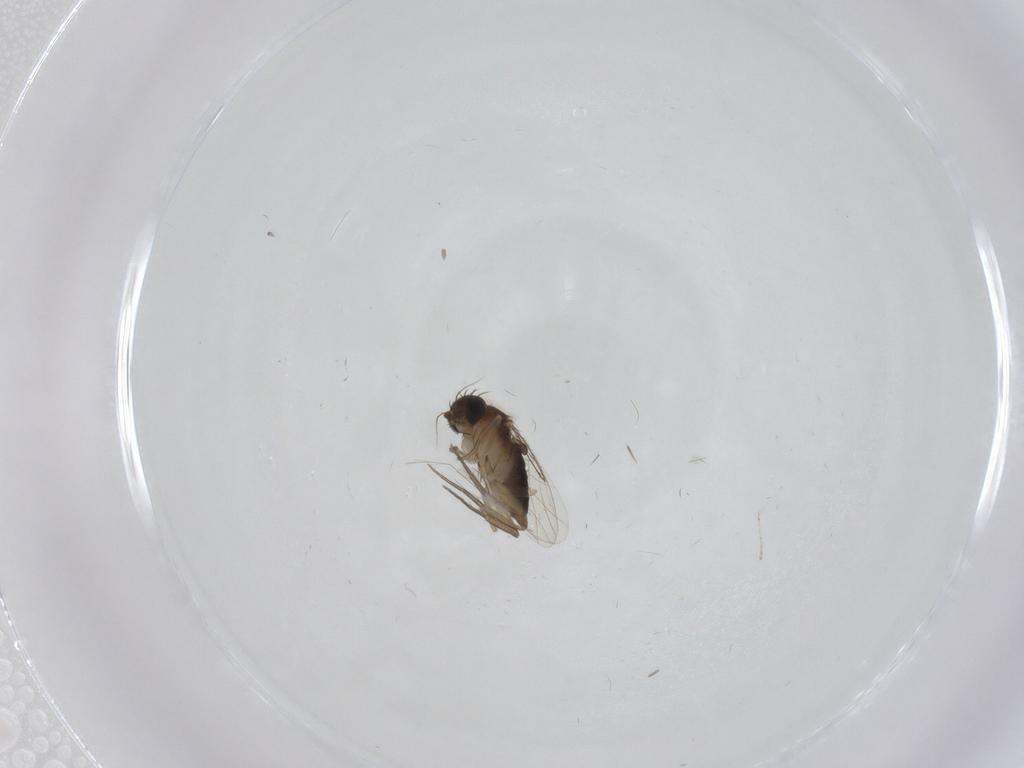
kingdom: Animalia
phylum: Arthropoda
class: Insecta
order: Diptera
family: Phoridae
